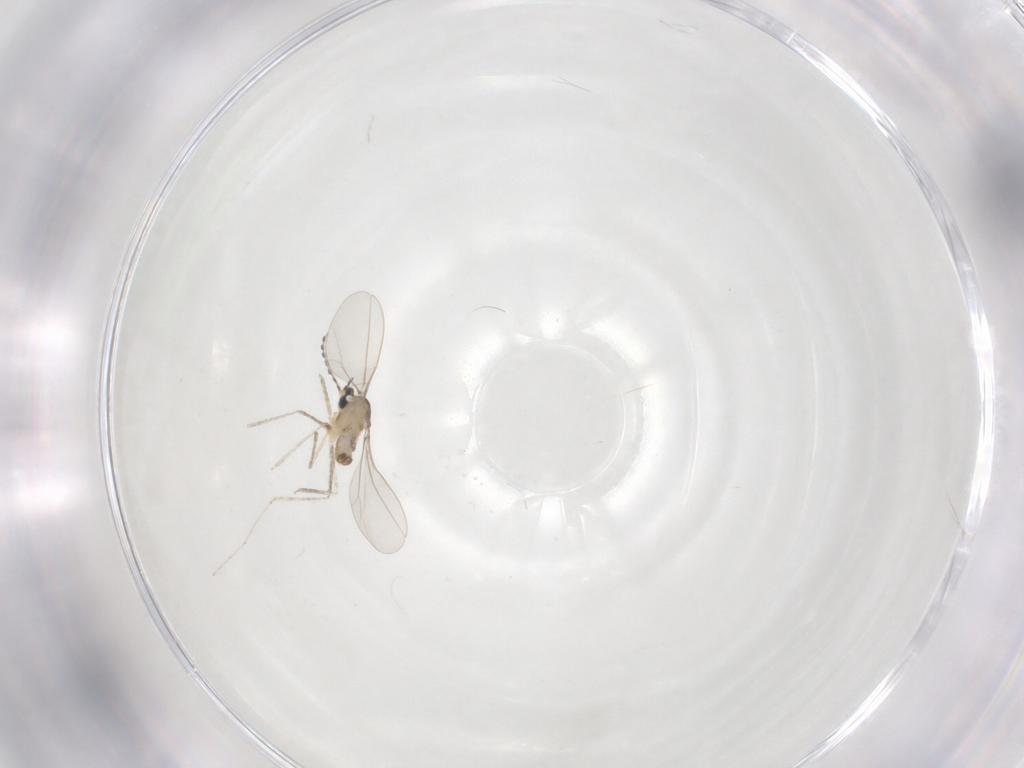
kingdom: Animalia
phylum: Arthropoda
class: Insecta
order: Diptera
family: Cecidomyiidae
